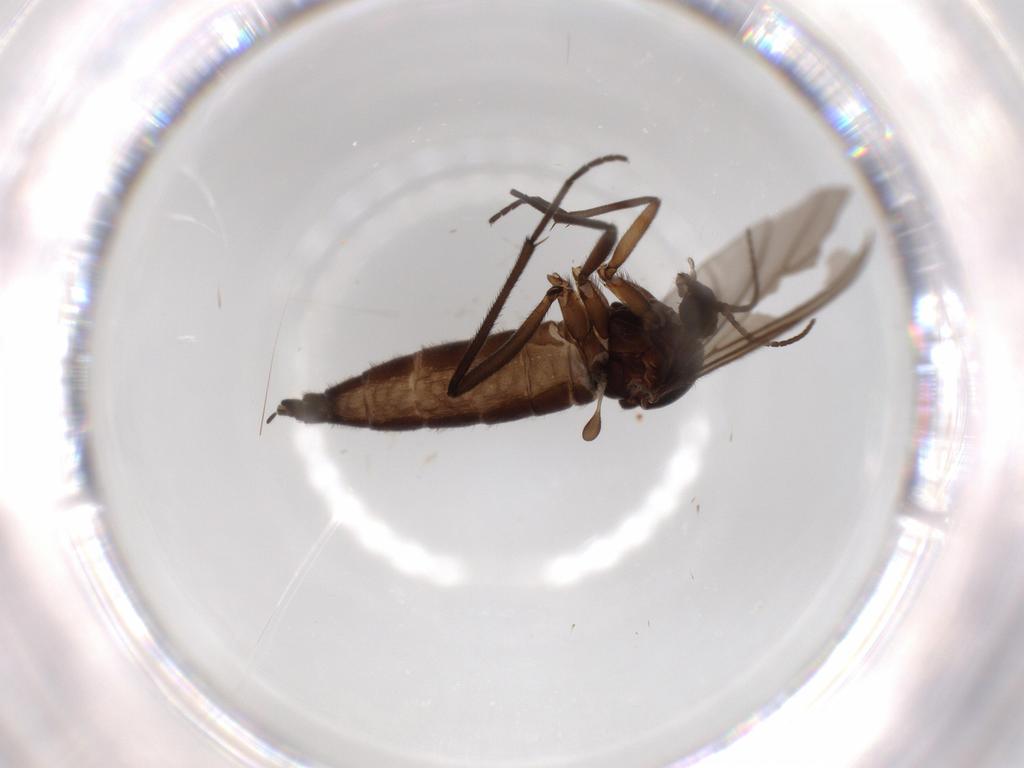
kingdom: Animalia
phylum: Arthropoda
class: Insecta
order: Diptera
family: Sciaridae
